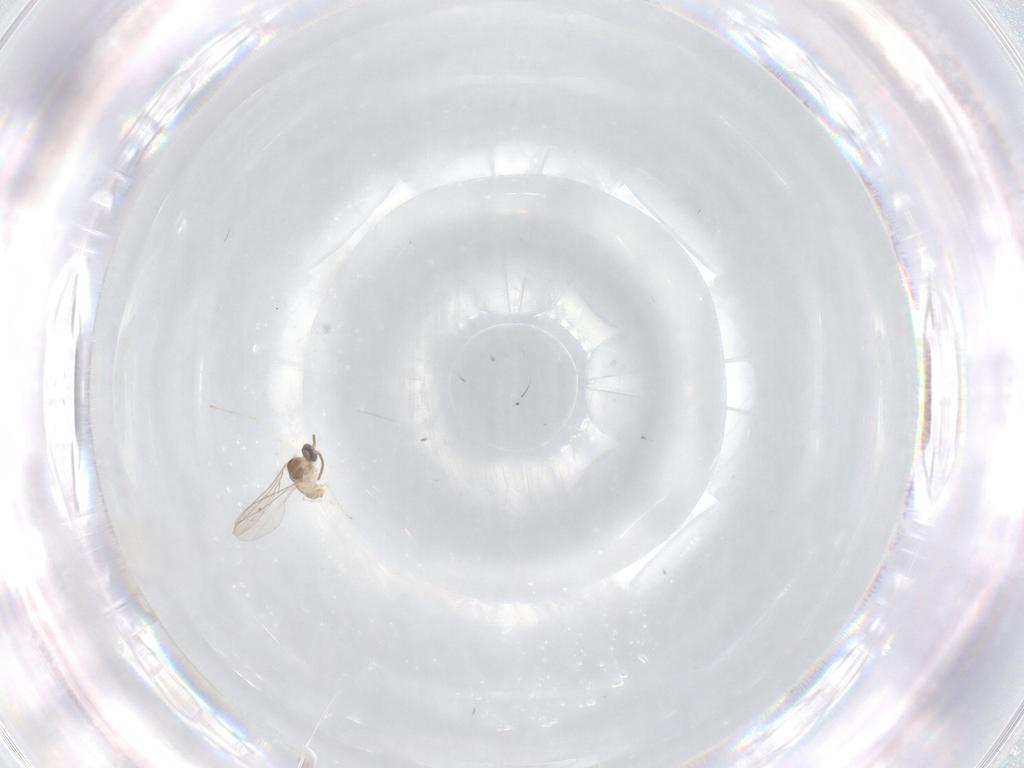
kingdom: Animalia
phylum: Arthropoda
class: Insecta
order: Diptera
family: Cecidomyiidae
